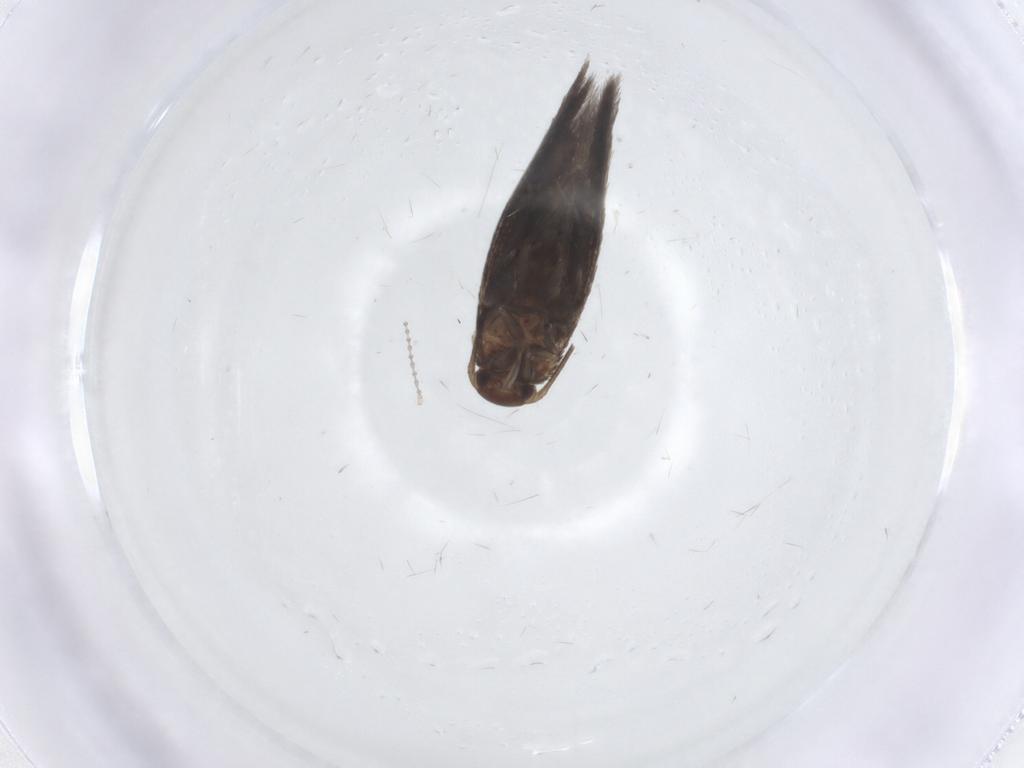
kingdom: Animalia
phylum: Arthropoda
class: Insecta
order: Lepidoptera
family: Elachistidae
